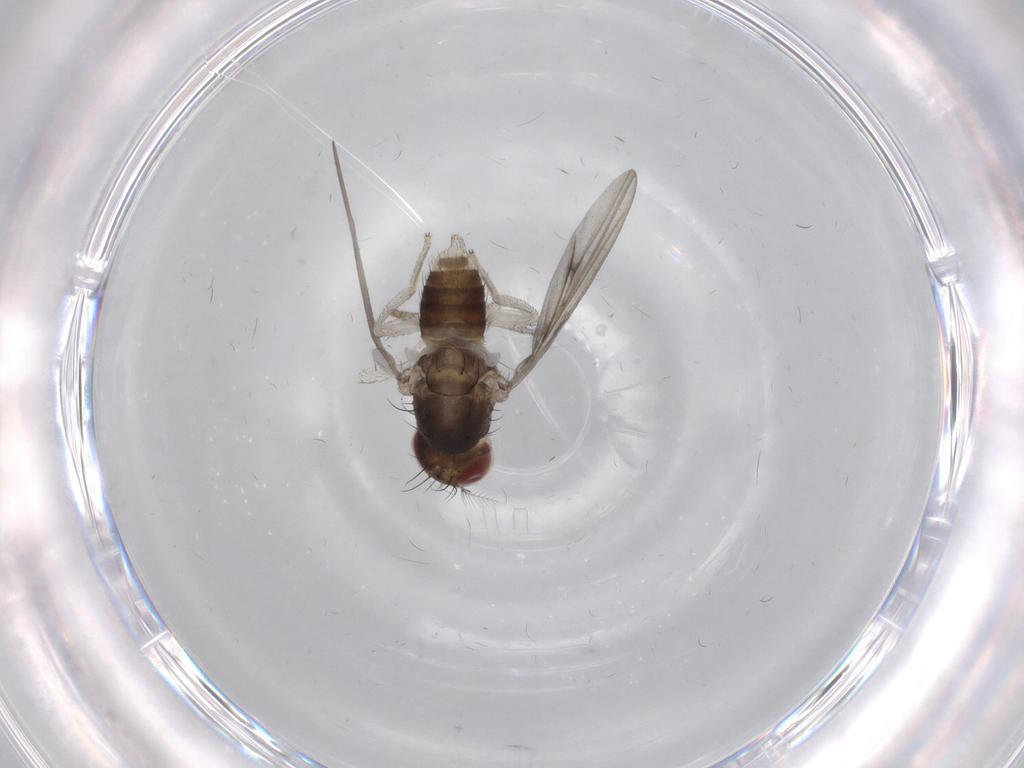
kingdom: Animalia
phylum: Arthropoda
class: Insecta
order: Diptera
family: Tipulidae
